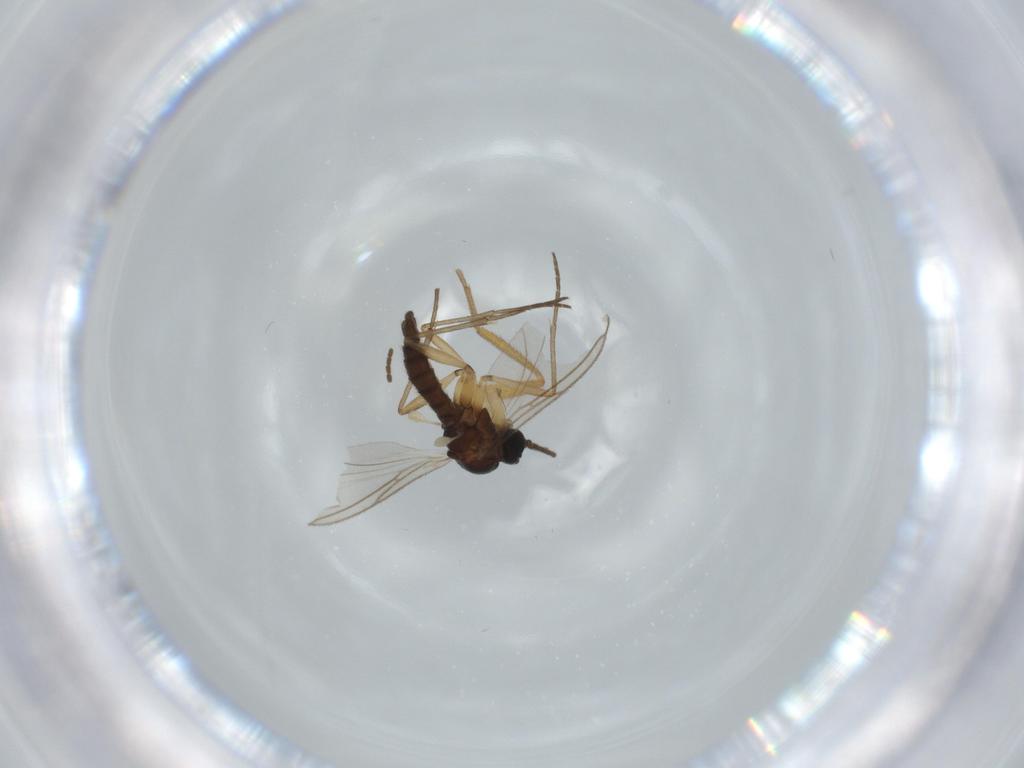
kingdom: Animalia
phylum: Arthropoda
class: Insecta
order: Diptera
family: Drosophilidae
